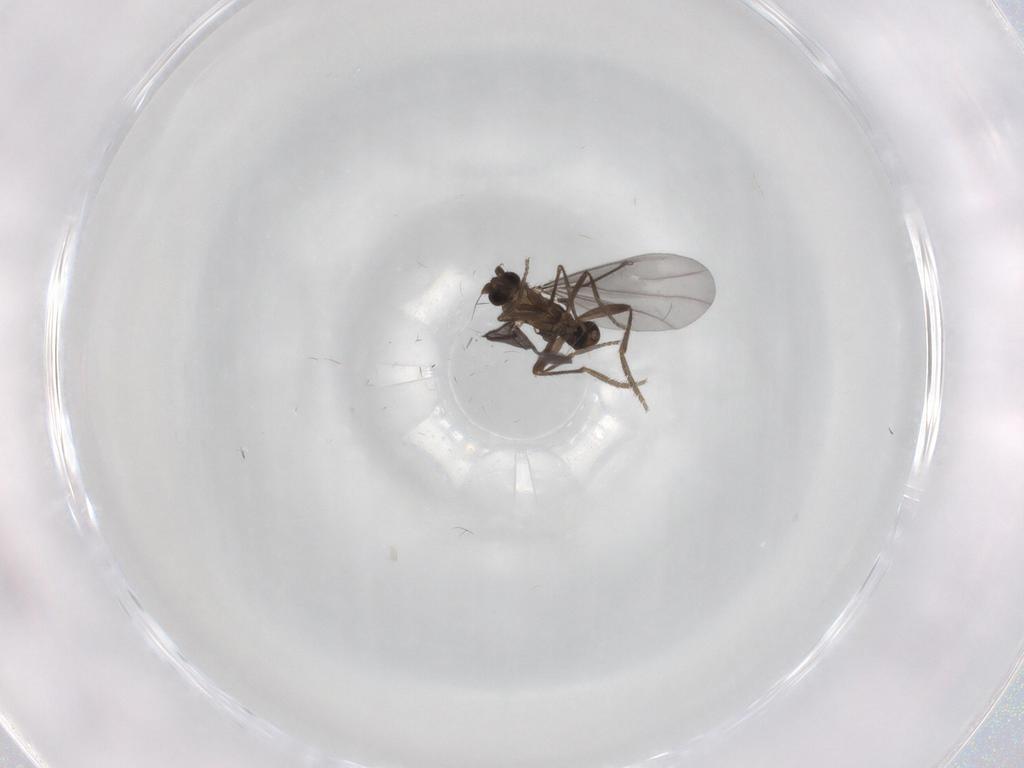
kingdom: Animalia
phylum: Arthropoda
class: Insecta
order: Diptera
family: Phoridae
